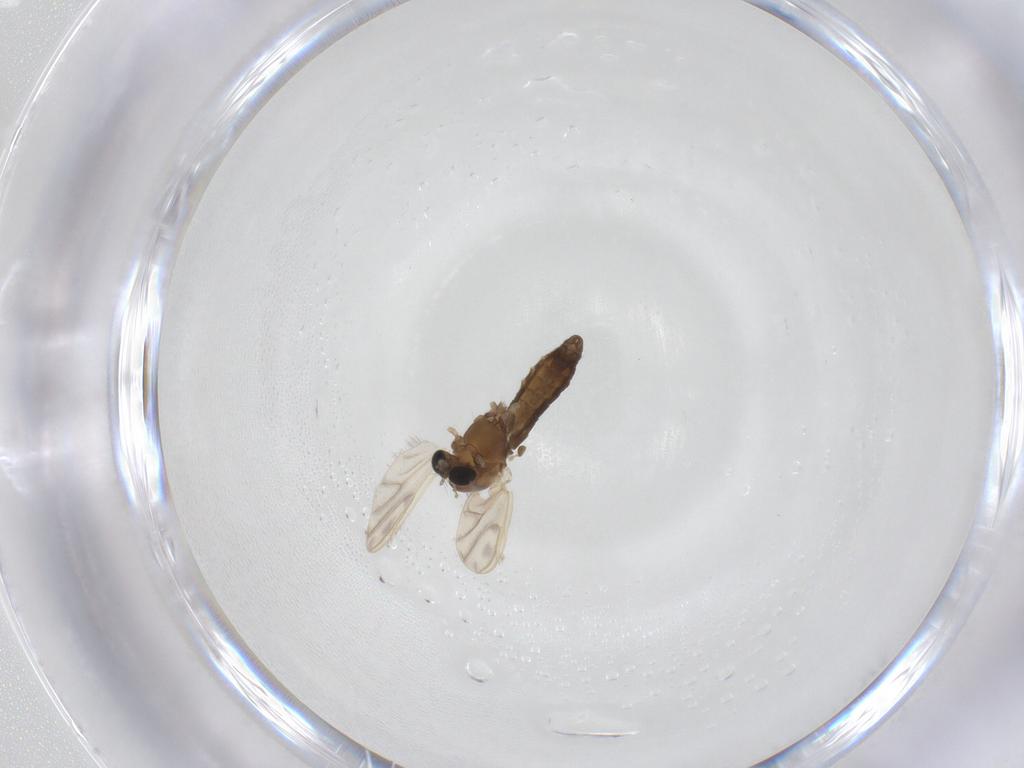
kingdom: Animalia
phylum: Arthropoda
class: Insecta
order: Diptera
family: Chironomidae
